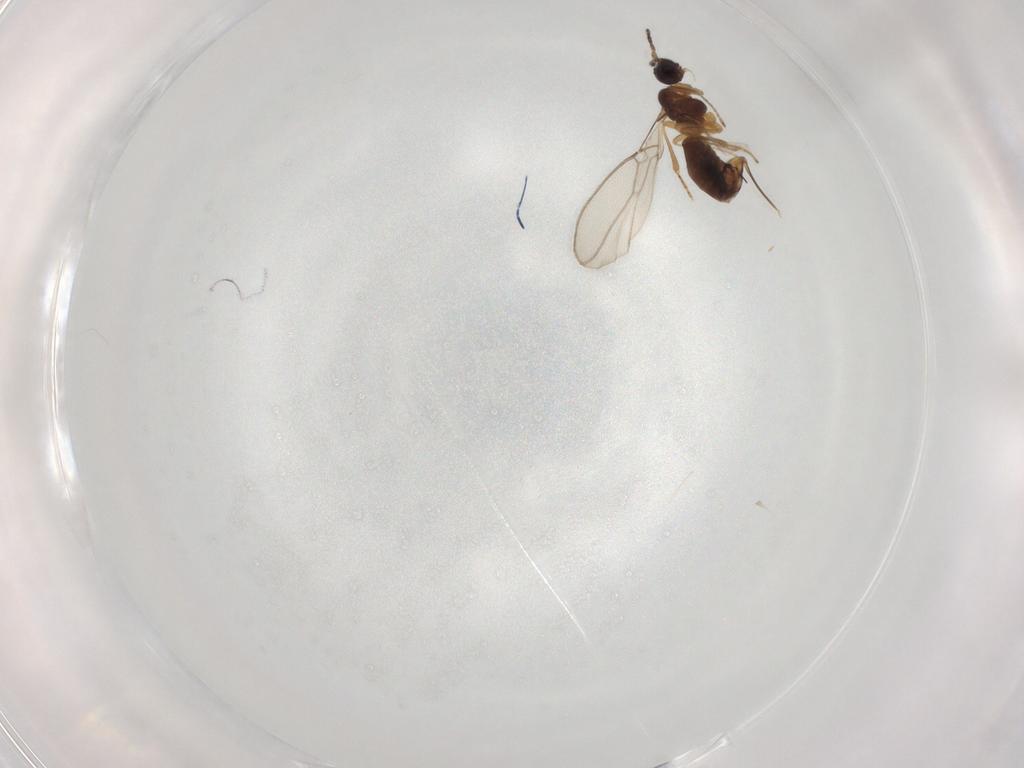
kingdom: Animalia
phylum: Arthropoda
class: Insecta
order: Hymenoptera
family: Braconidae
